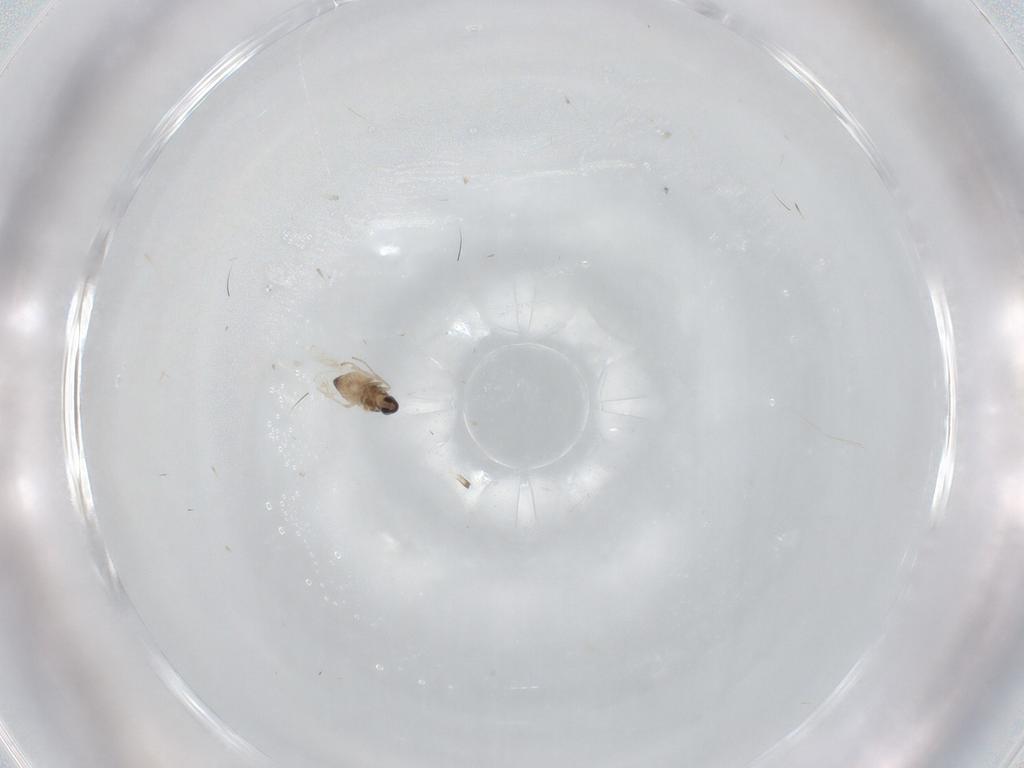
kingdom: Animalia
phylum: Arthropoda
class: Insecta
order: Diptera
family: Cecidomyiidae
